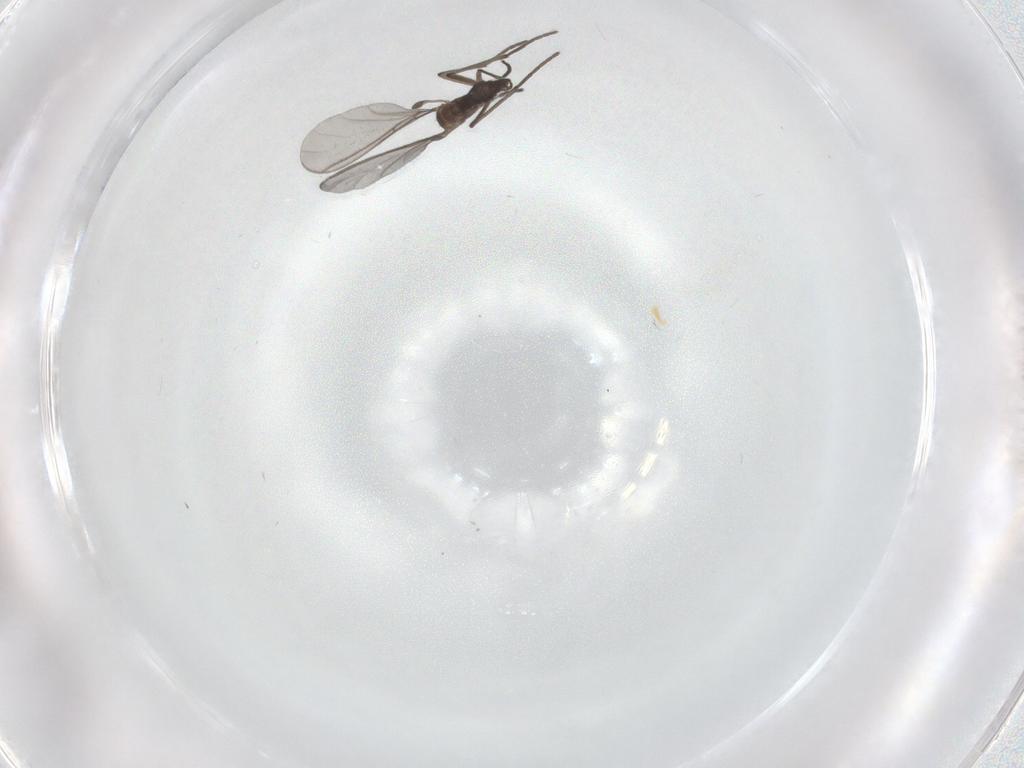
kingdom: Animalia
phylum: Arthropoda
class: Insecta
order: Diptera
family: Sciaridae
